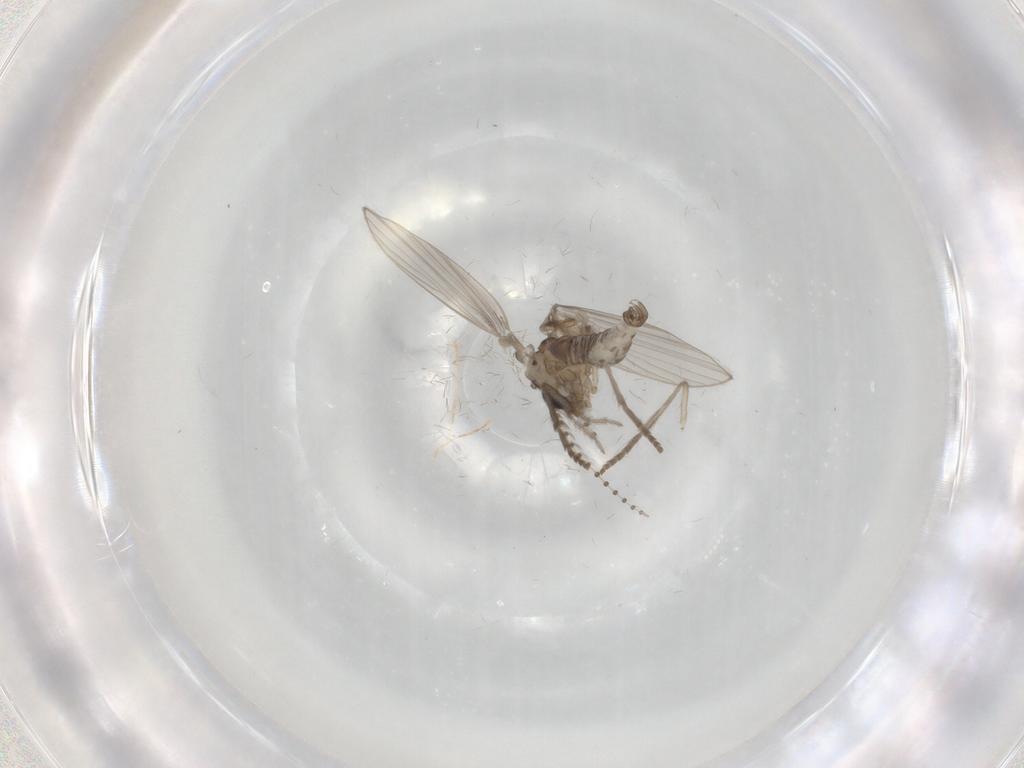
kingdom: Animalia
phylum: Arthropoda
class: Insecta
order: Diptera
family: Psychodidae
